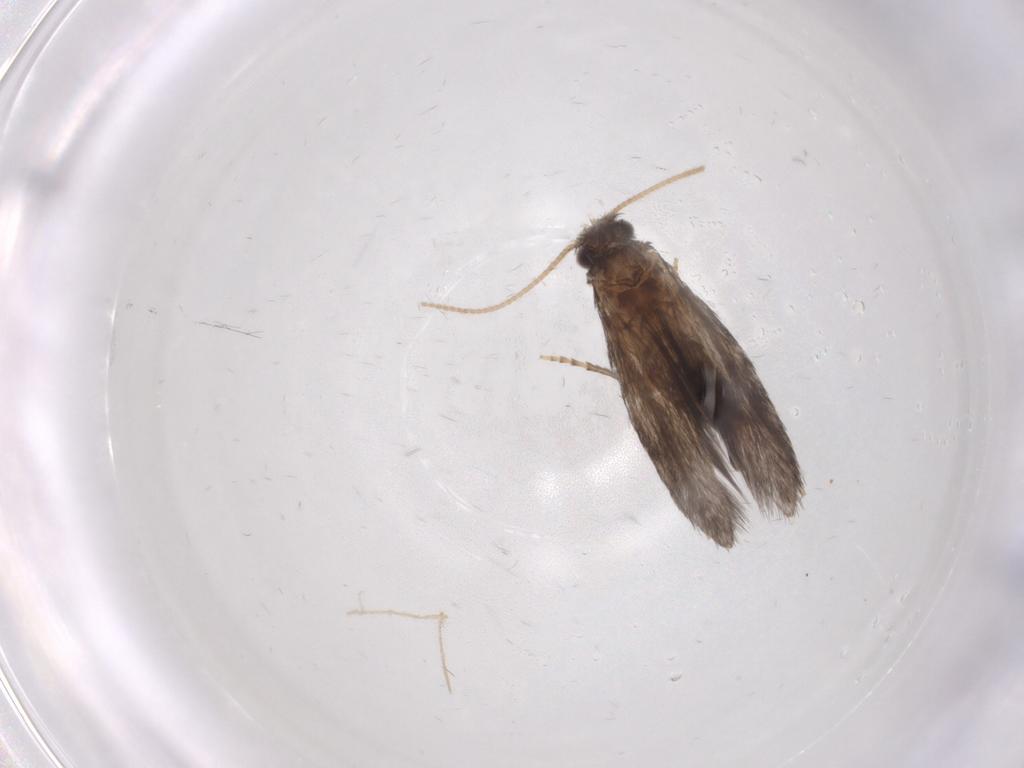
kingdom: Animalia
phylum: Arthropoda
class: Insecta
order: Trichoptera
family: Hydroptilidae
